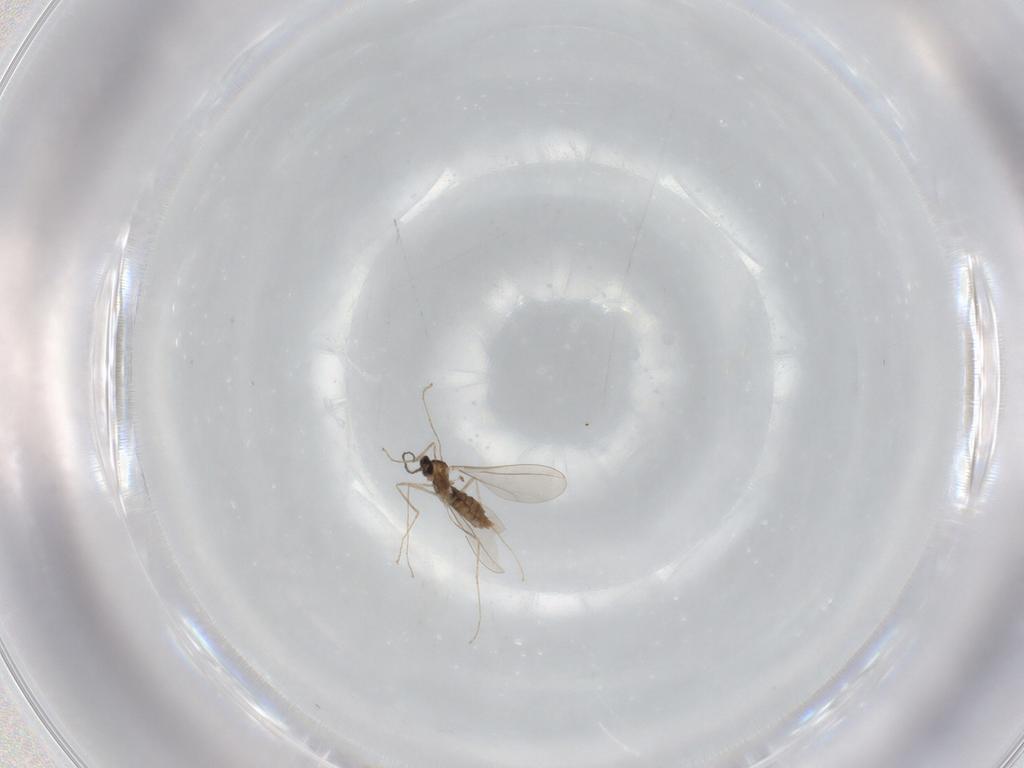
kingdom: Animalia
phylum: Arthropoda
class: Insecta
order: Diptera
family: Drosophilidae
